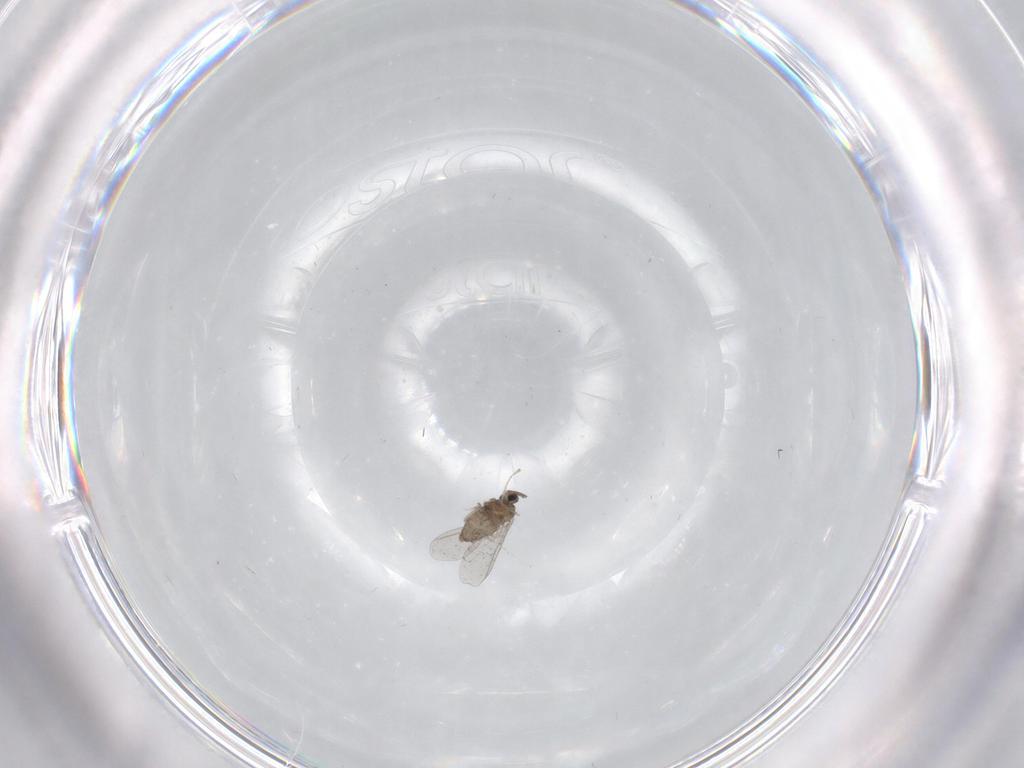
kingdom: Animalia
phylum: Arthropoda
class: Insecta
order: Diptera
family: Cecidomyiidae
